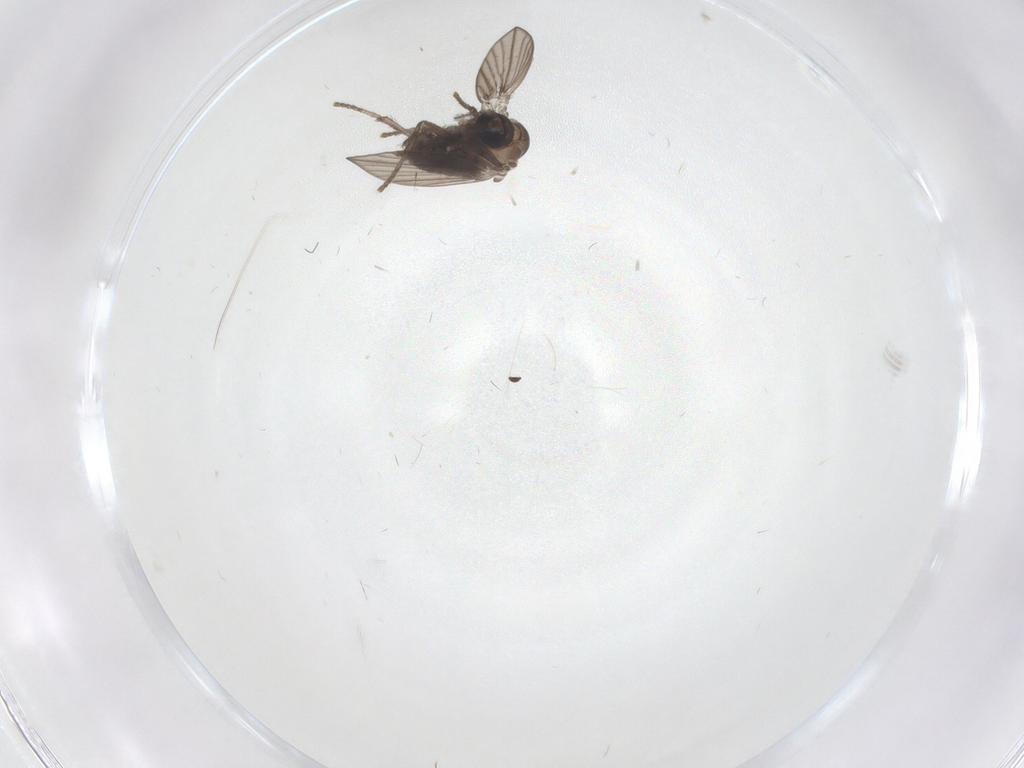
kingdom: Animalia
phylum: Arthropoda
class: Insecta
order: Diptera
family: Psychodidae
